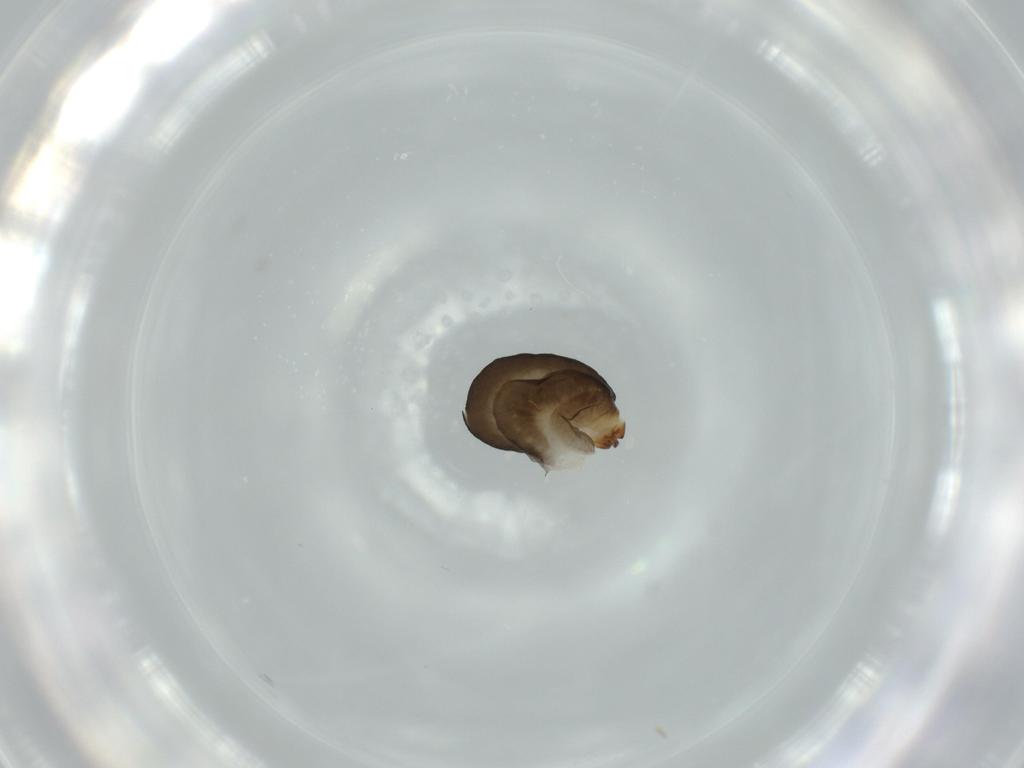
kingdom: Animalia
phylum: Arthropoda
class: Insecta
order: Hymenoptera
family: Dryinidae
